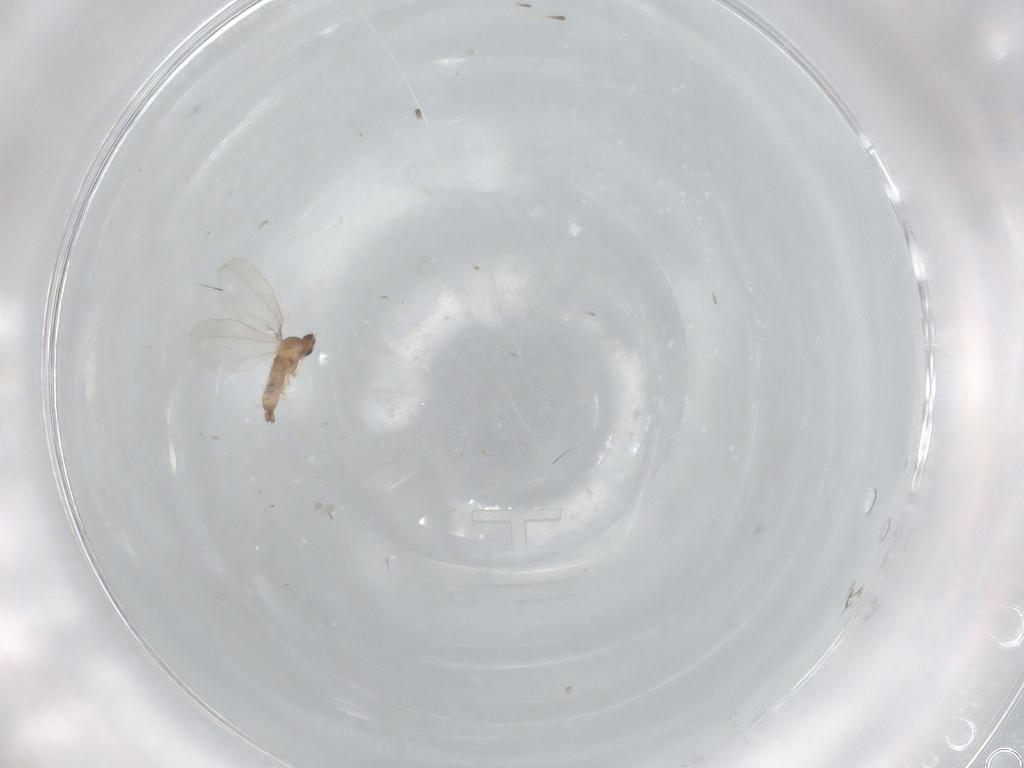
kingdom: Animalia
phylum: Arthropoda
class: Insecta
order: Diptera
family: Cecidomyiidae
